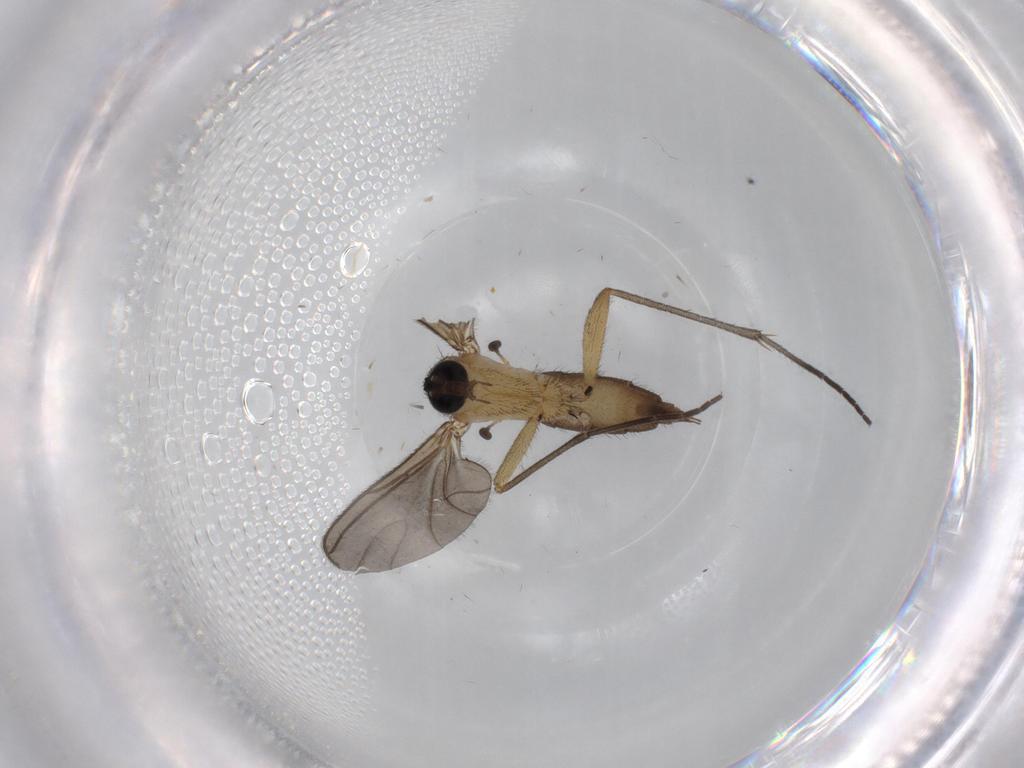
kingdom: Animalia
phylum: Arthropoda
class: Insecta
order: Diptera
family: Sciaridae
